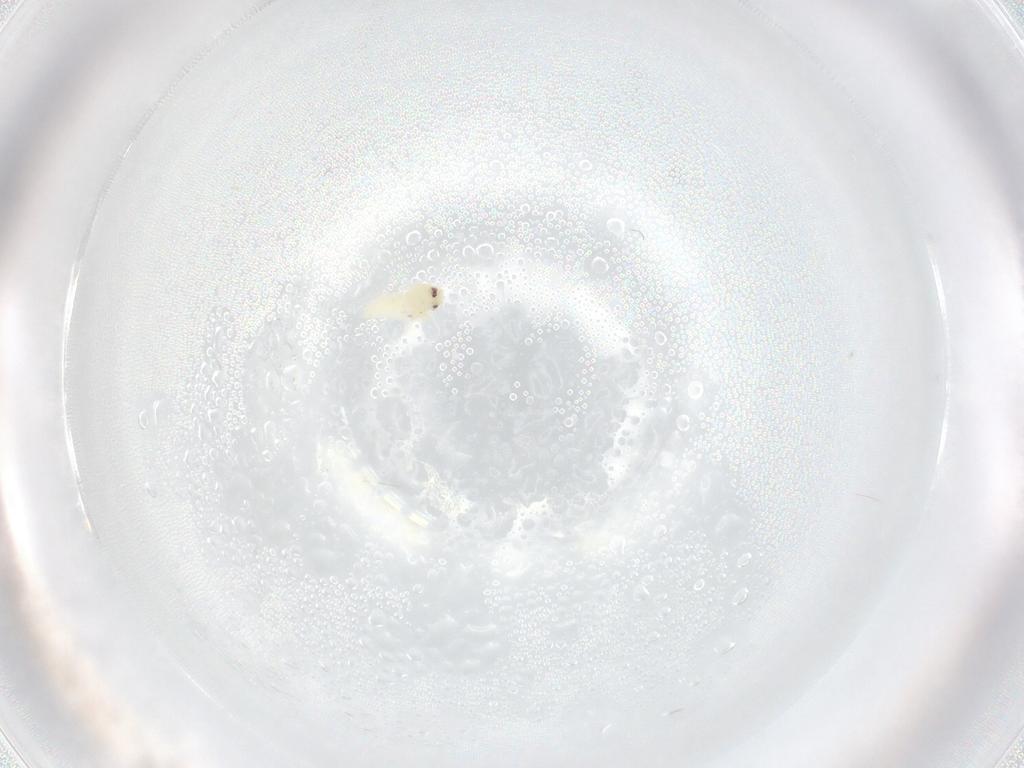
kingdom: Animalia
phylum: Arthropoda
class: Insecta
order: Hemiptera
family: Aleyrodidae
